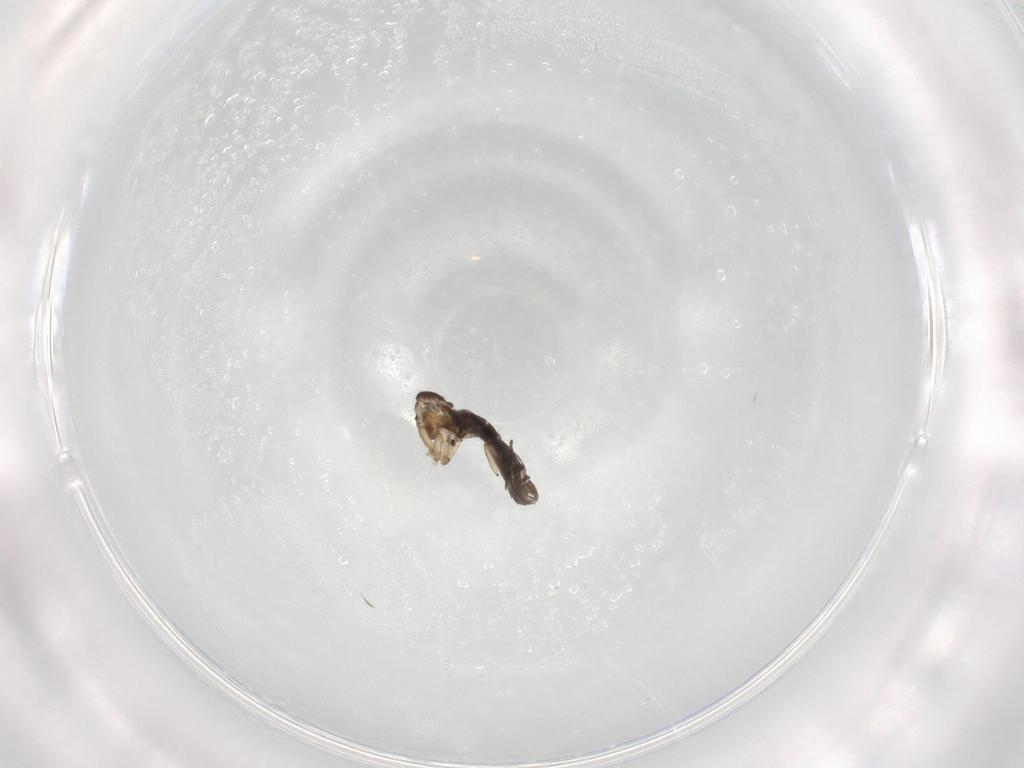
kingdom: Animalia
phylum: Arthropoda
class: Insecta
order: Diptera
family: Sciaridae
